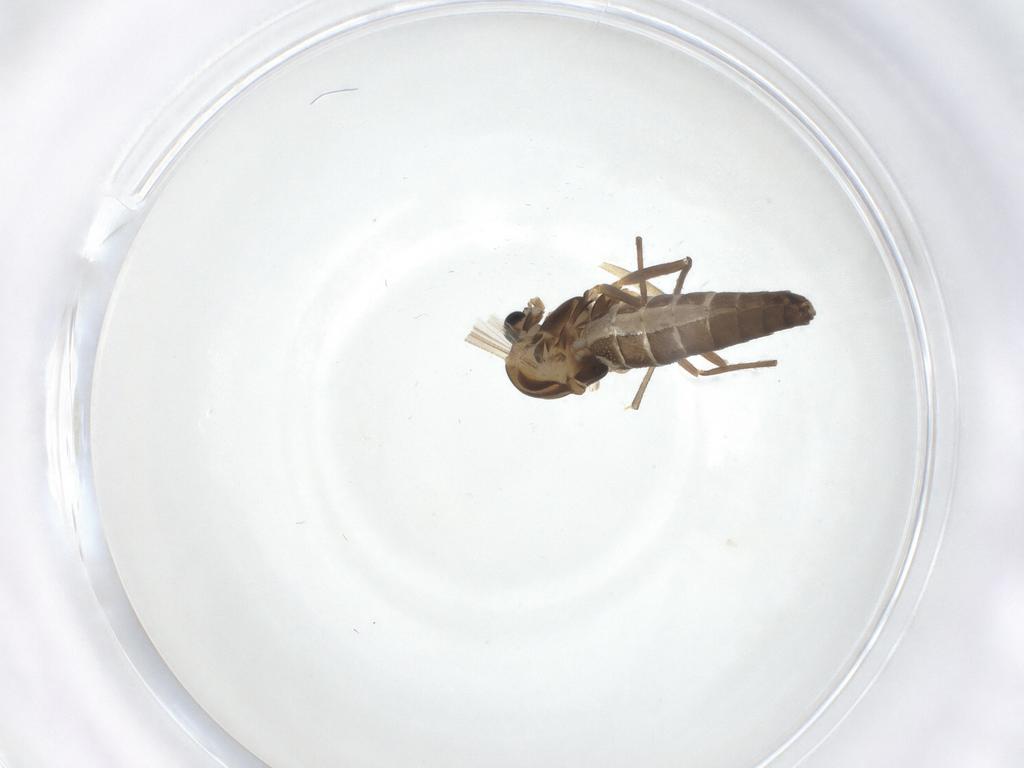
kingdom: Animalia
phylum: Arthropoda
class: Insecta
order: Diptera
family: Chironomidae
